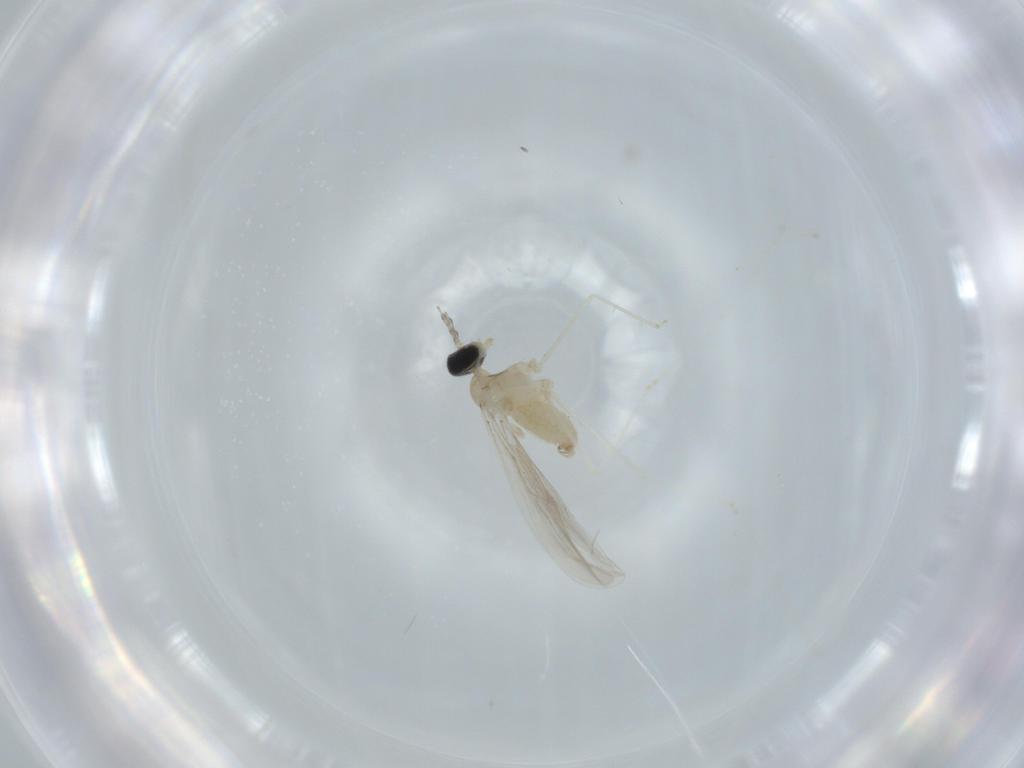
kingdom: Animalia
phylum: Arthropoda
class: Insecta
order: Diptera
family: Cecidomyiidae
